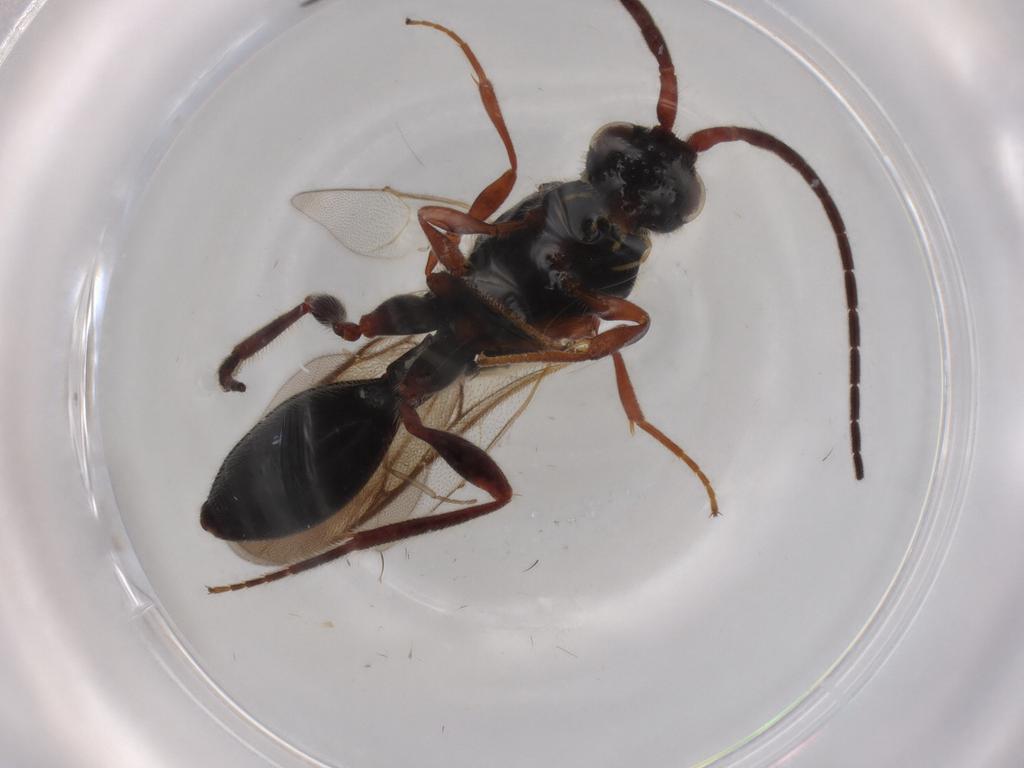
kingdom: Animalia
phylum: Arthropoda
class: Insecta
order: Hymenoptera
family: Diapriidae
